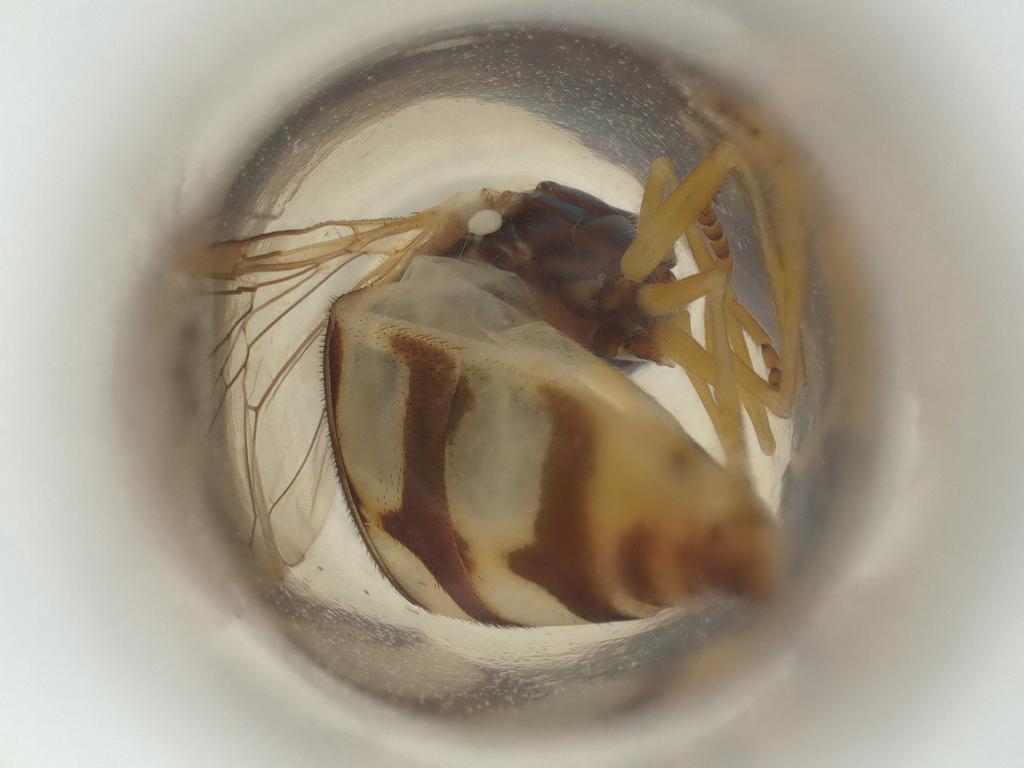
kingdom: Animalia
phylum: Arthropoda
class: Insecta
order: Diptera
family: Syrphidae
